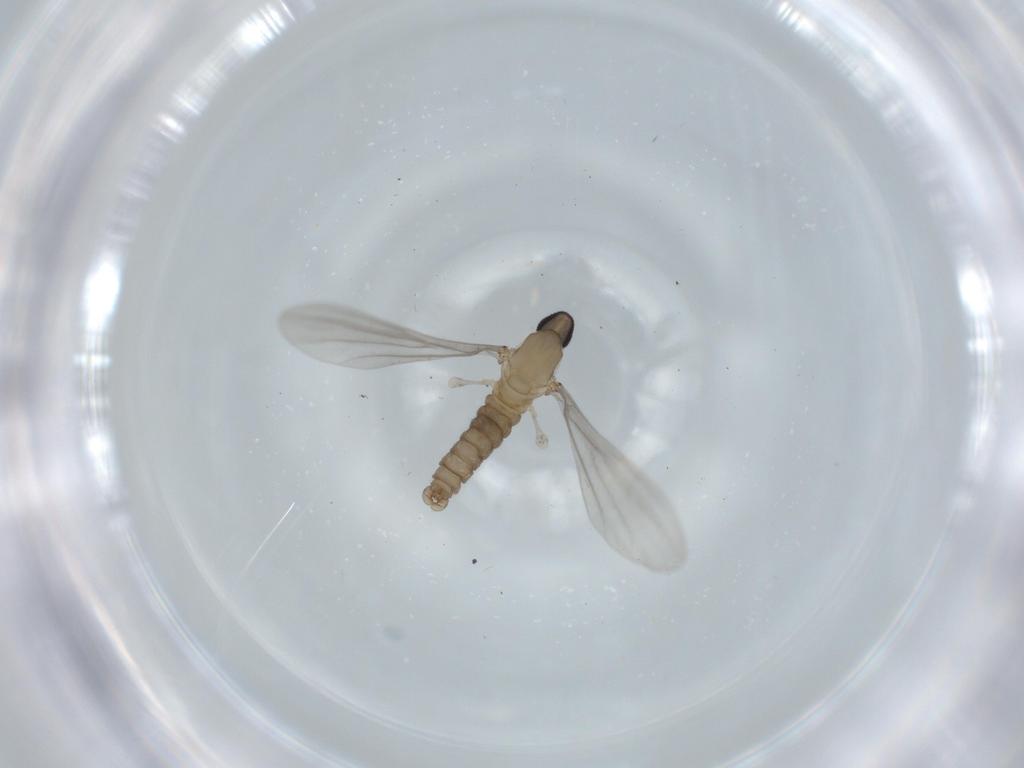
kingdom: Animalia
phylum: Arthropoda
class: Insecta
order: Diptera
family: Cecidomyiidae
